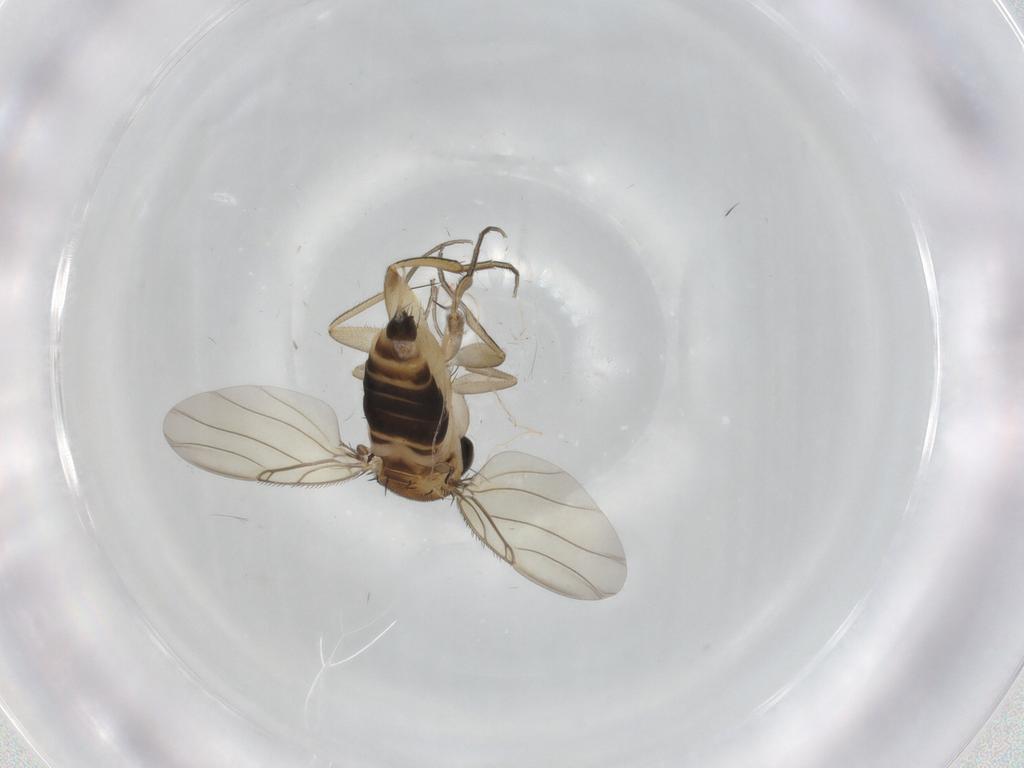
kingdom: Animalia
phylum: Arthropoda
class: Insecta
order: Diptera
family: Phoridae
